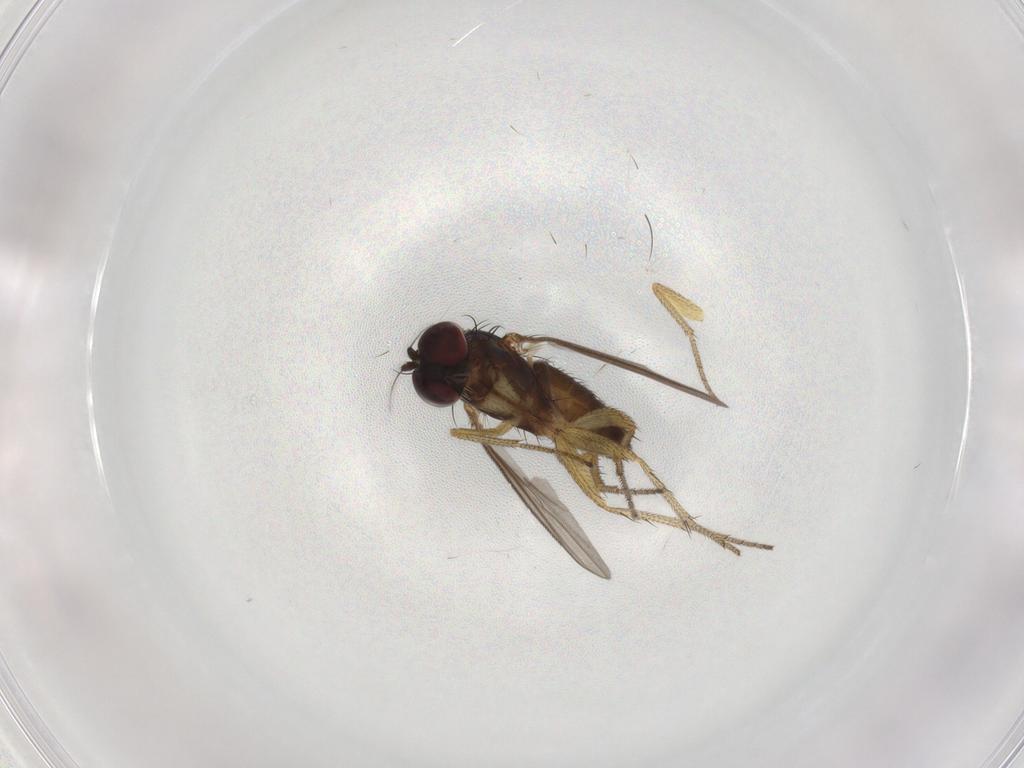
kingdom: Animalia
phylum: Arthropoda
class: Insecta
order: Diptera
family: Dolichopodidae
